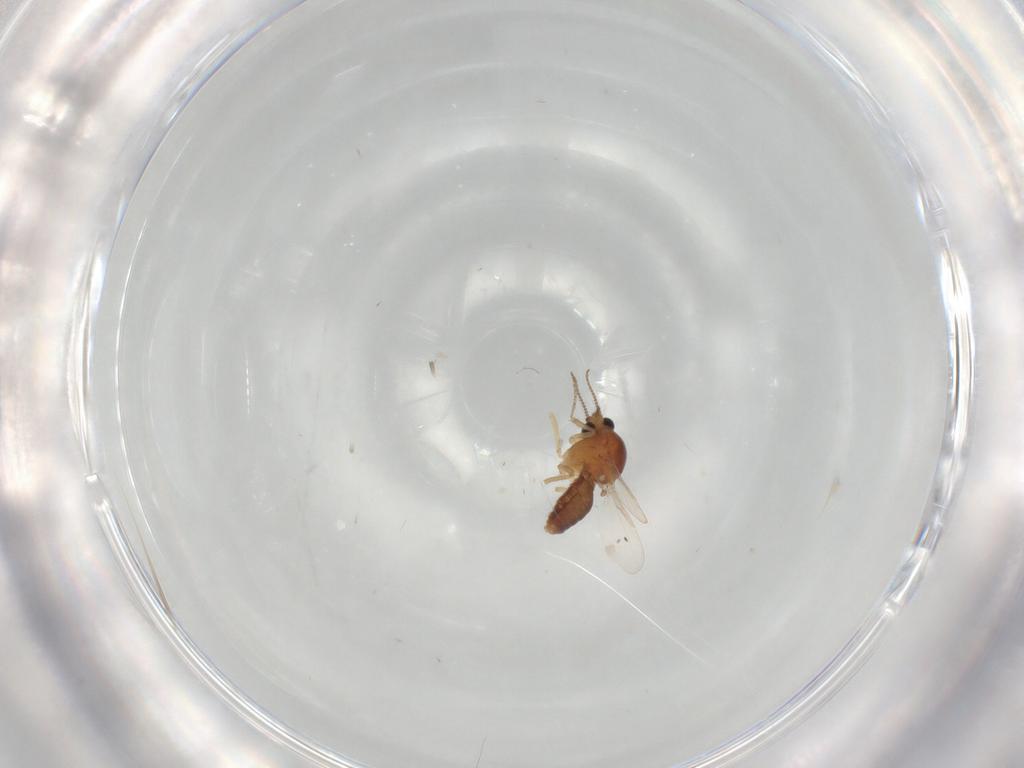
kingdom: Animalia
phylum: Arthropoda
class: Insecta
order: Diptera
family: Ceratopogonidae
